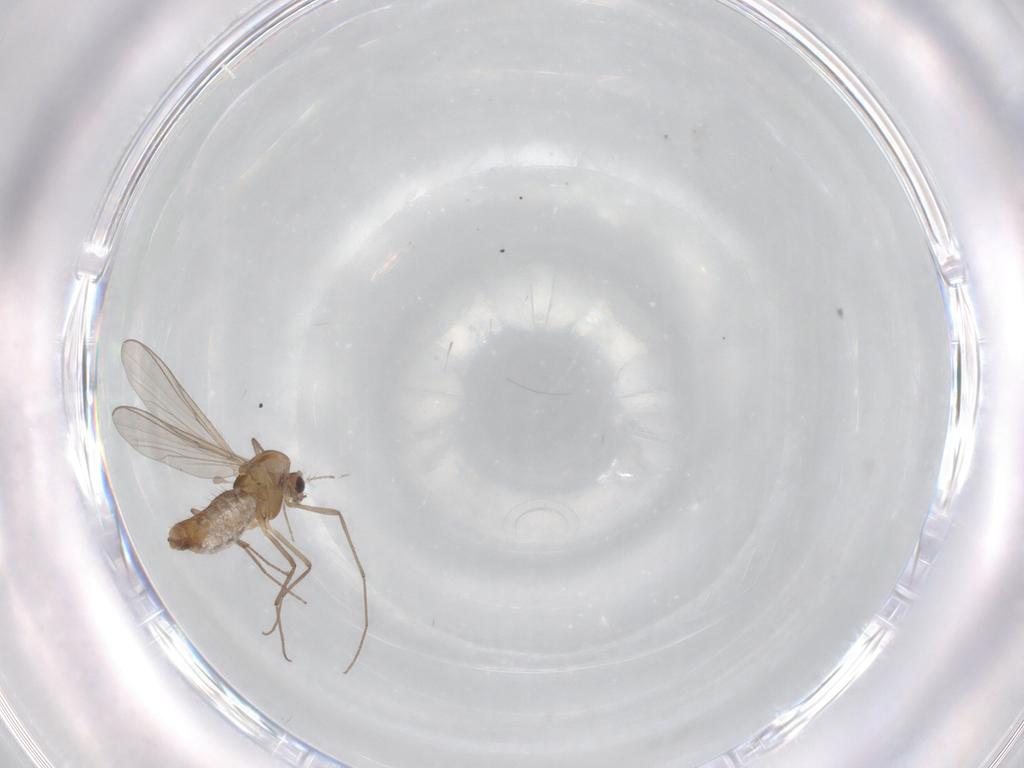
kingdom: Animalia
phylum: Arthropoda
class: Insecta
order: Diptera
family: Chironomidae
